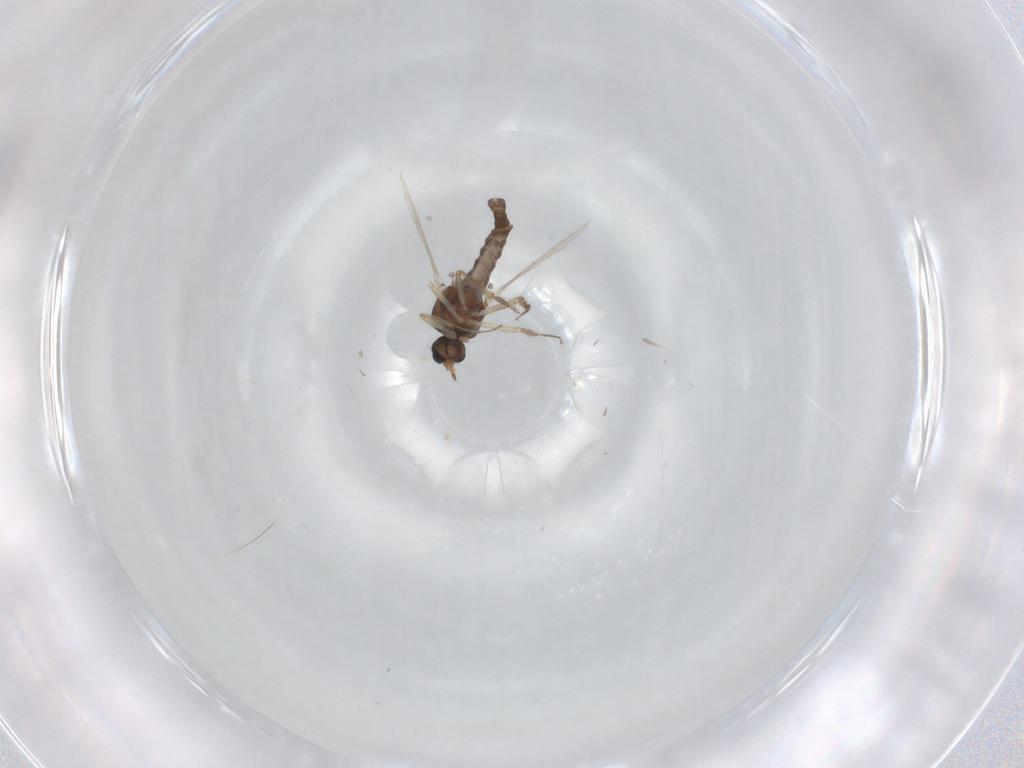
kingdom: Animalia
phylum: Arthropoda
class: Insecta
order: Diptera
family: Ceratopogonidae
